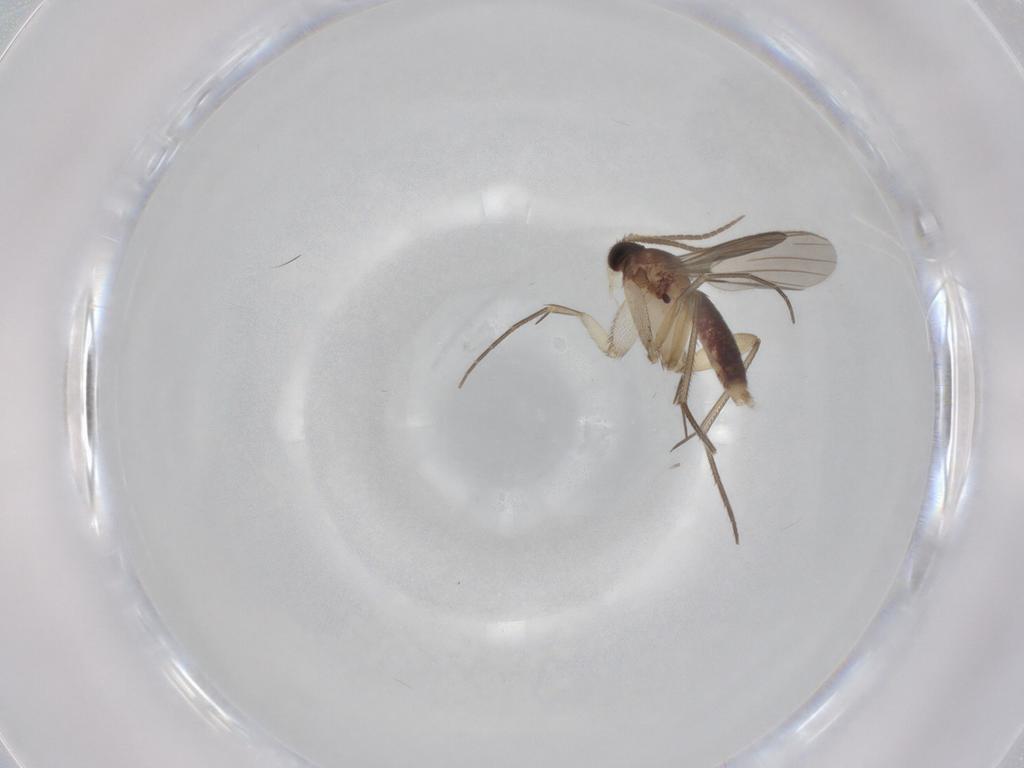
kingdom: Animalia
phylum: Arthropoda
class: Insecta
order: Diptera
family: Mycetophilidae
